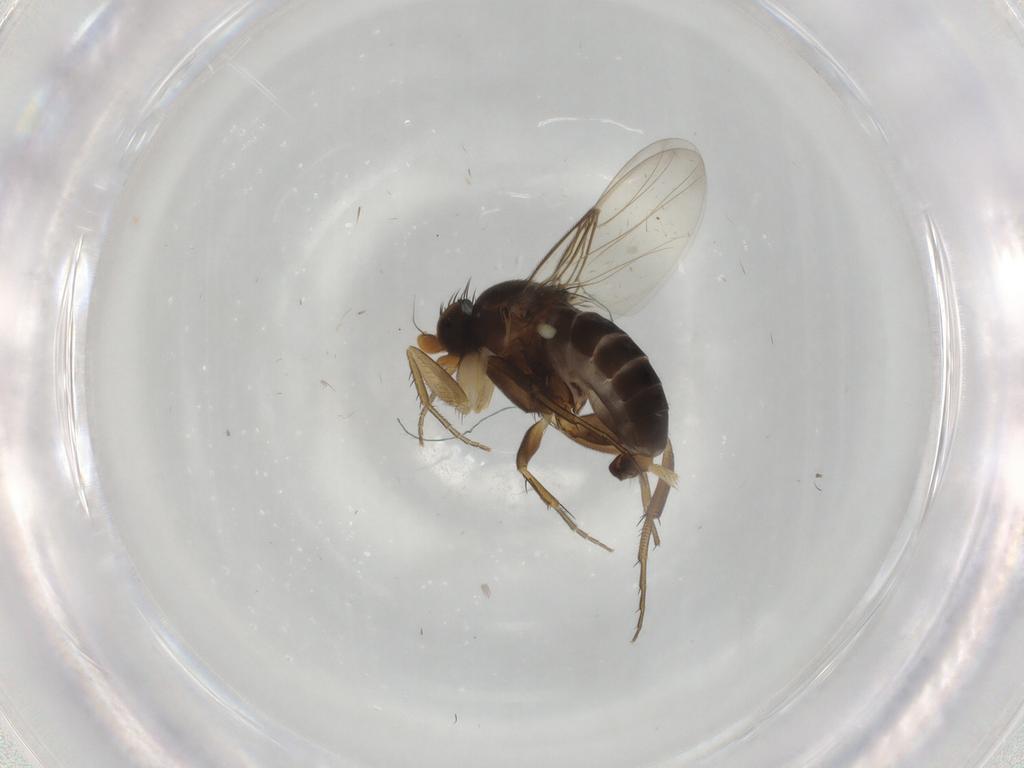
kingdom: Animalia
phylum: Arthropoda
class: Insecta
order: Diptera
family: Phoridae
